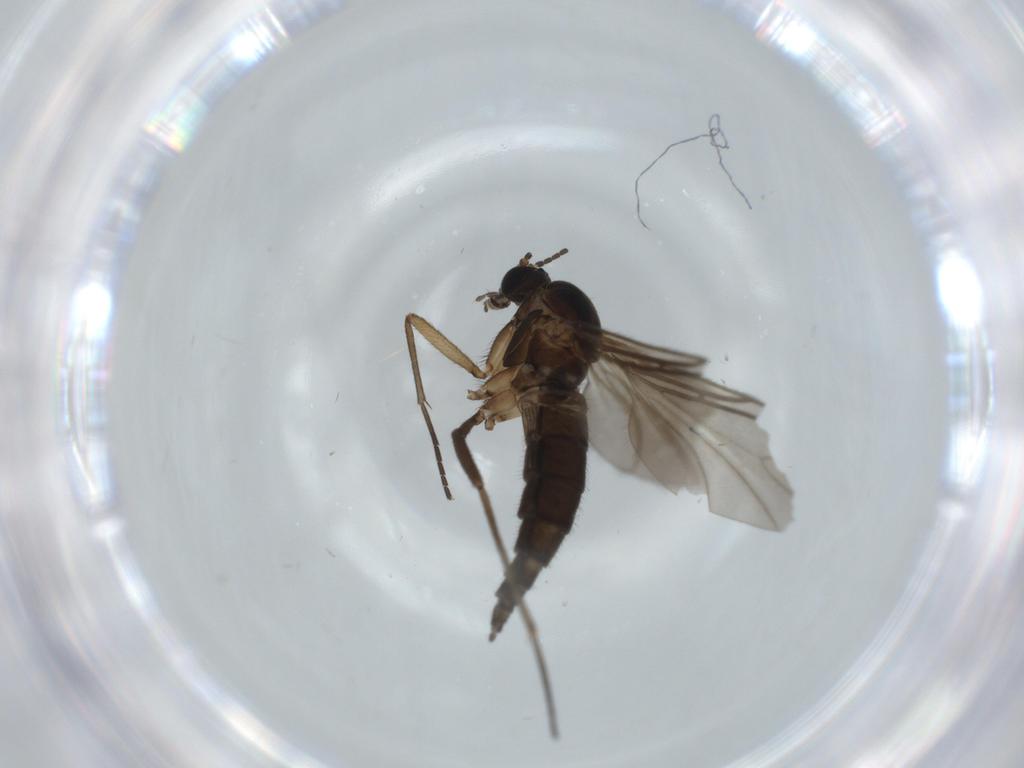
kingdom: Animalia
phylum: Arthropoda
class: Insecta
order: Diptera
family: Sciaridae
